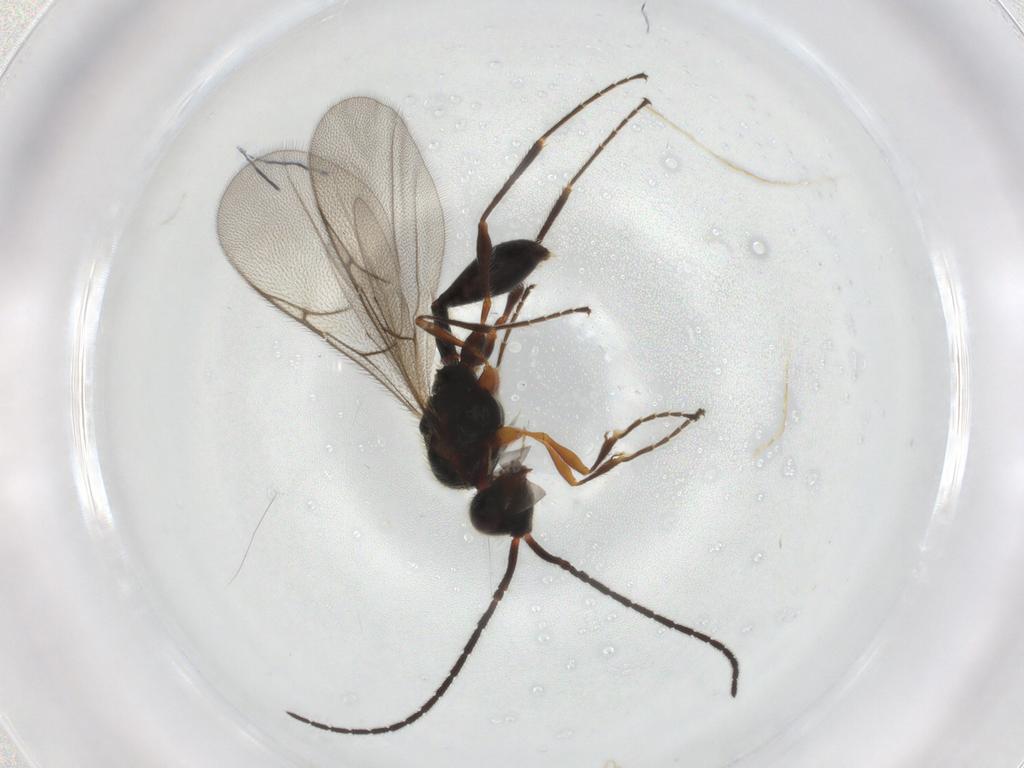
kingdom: Animalia
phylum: Arthropoda
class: Insecta
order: Hymenoptera
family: Diapriidae
